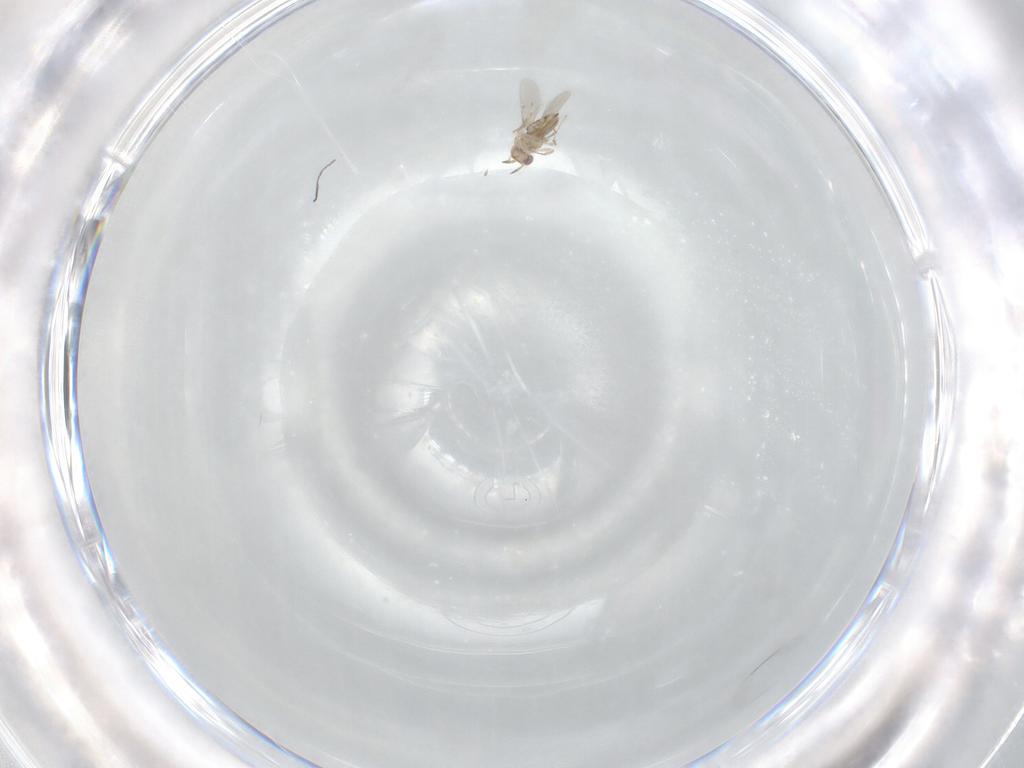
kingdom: Animalia
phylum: Arthropoda
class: Insecta
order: Hymenoptera
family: Aphelinidae
